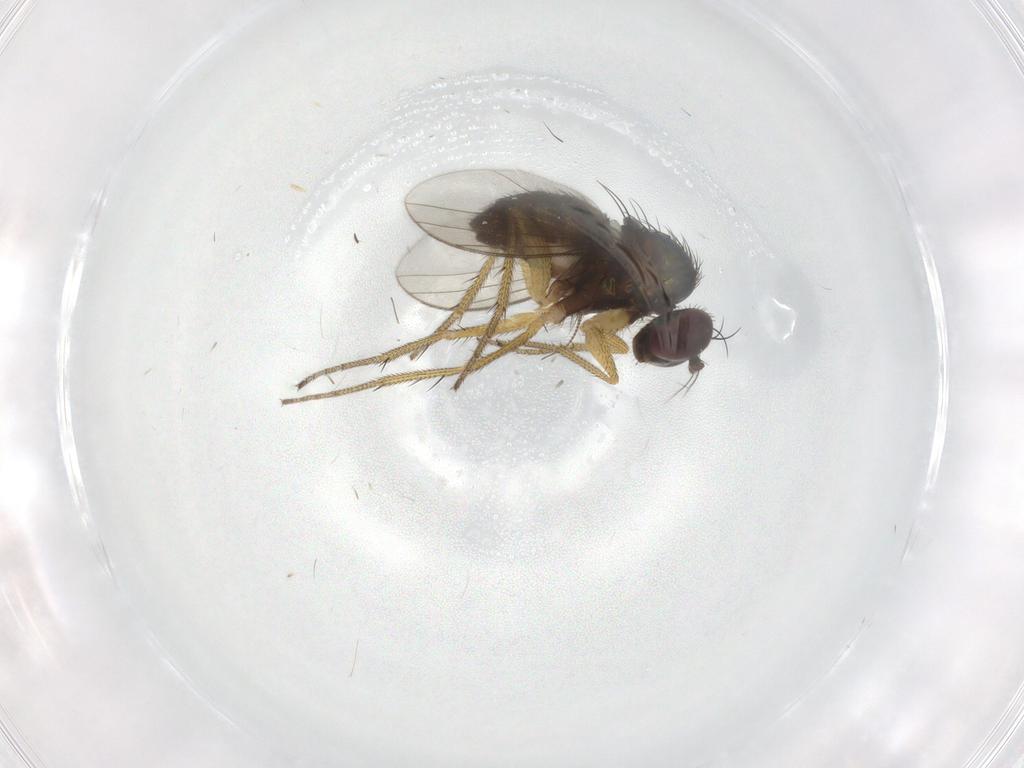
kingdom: Animalia
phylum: Arthropoda
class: Insecta
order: Diptera
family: Dolichopodidae
